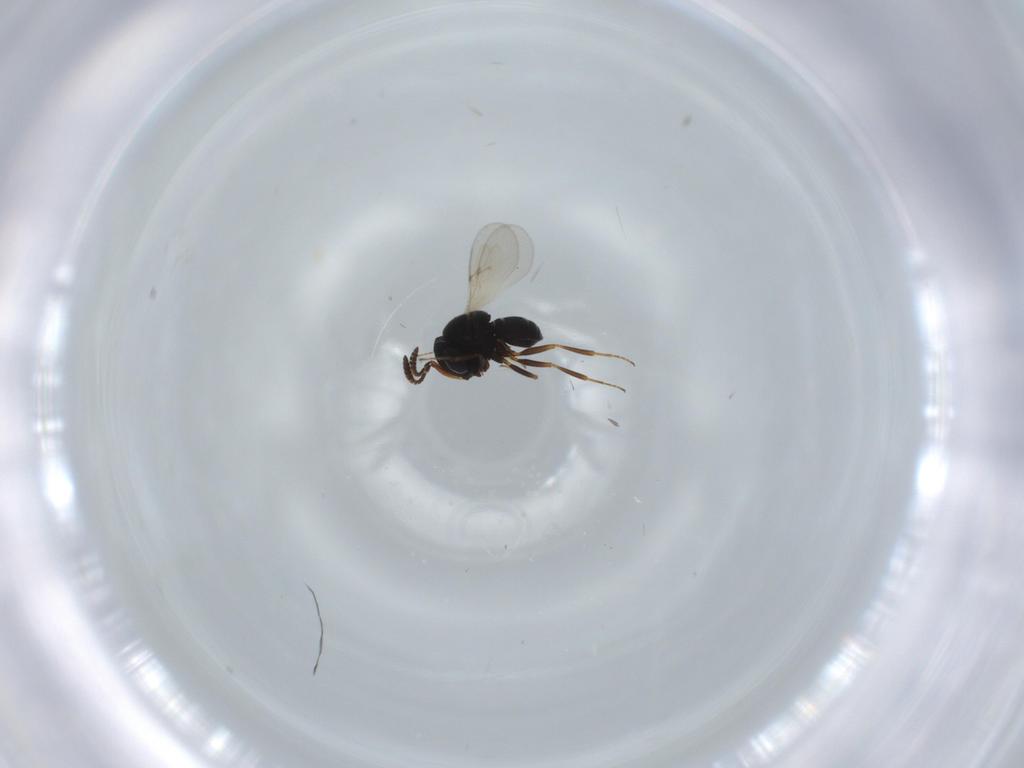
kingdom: Animalia
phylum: Arthropoda
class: Insecta
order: Hymenoptera
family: Scelionidae
